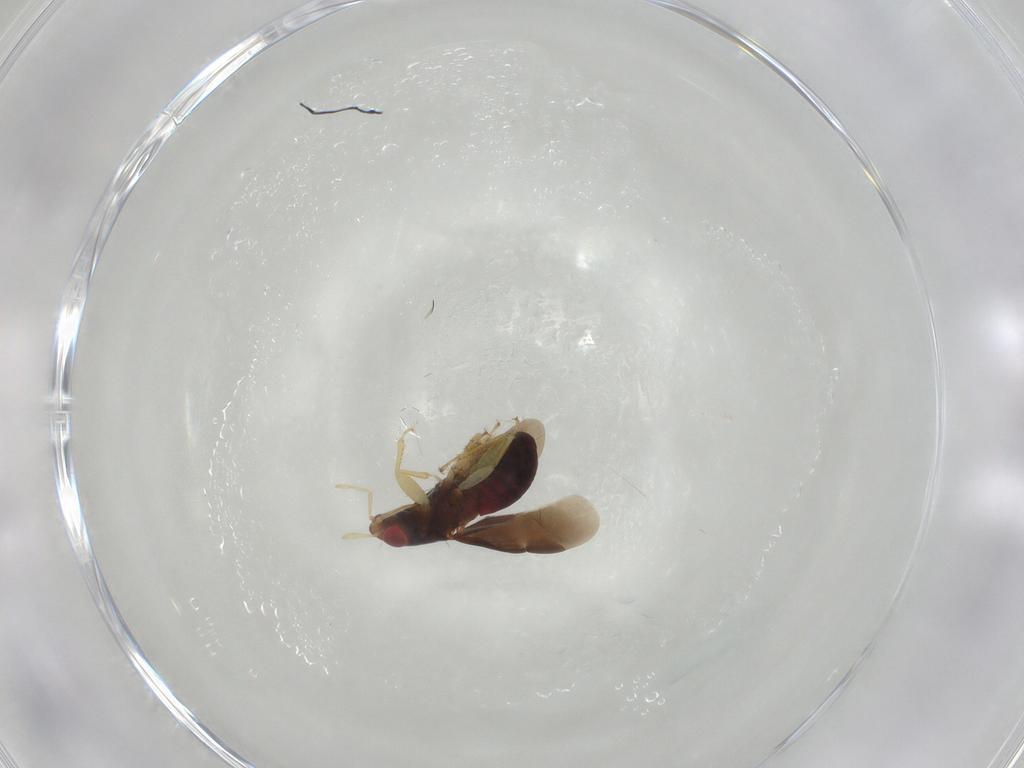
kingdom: Animalia
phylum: Arthropoda
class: Insecta
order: Hemiptera
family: Anthocoridae
